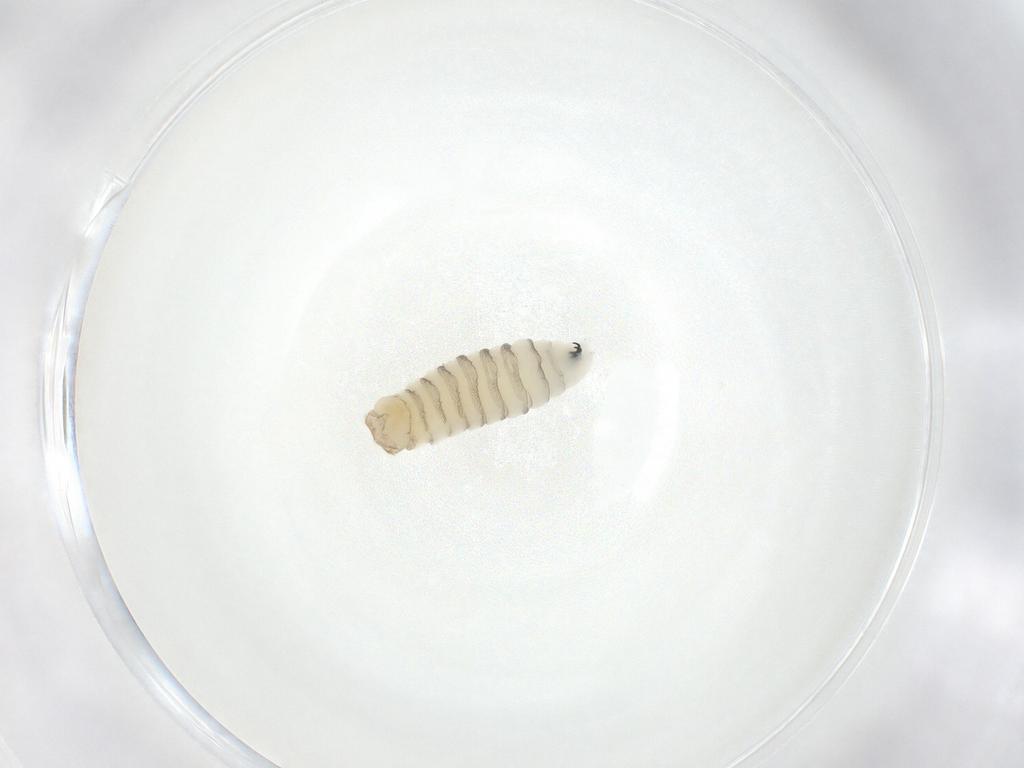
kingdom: Animalia
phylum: Arthropoda
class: Insecta
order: Diptera
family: Sarcophagidae
